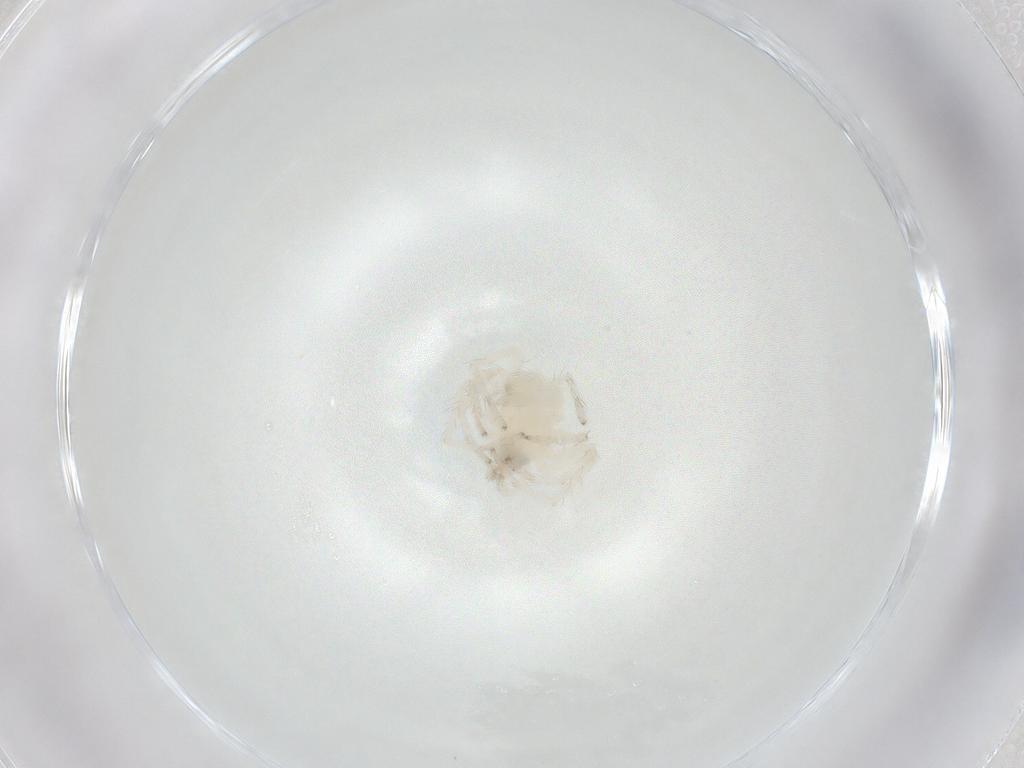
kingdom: Animalia
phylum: Arthropoda
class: Arachnida
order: Araneae
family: Anyphaenidae
